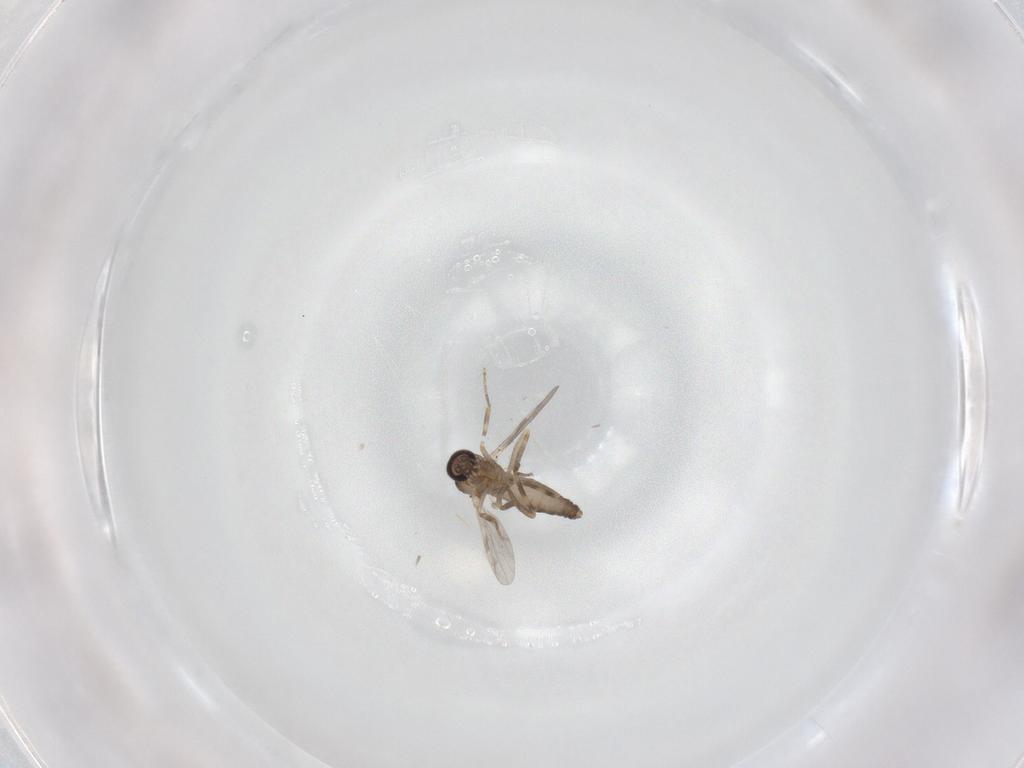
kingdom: Animalia
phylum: Arthropoda
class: Insecta
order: Diptera
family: Ceratopogonidae
